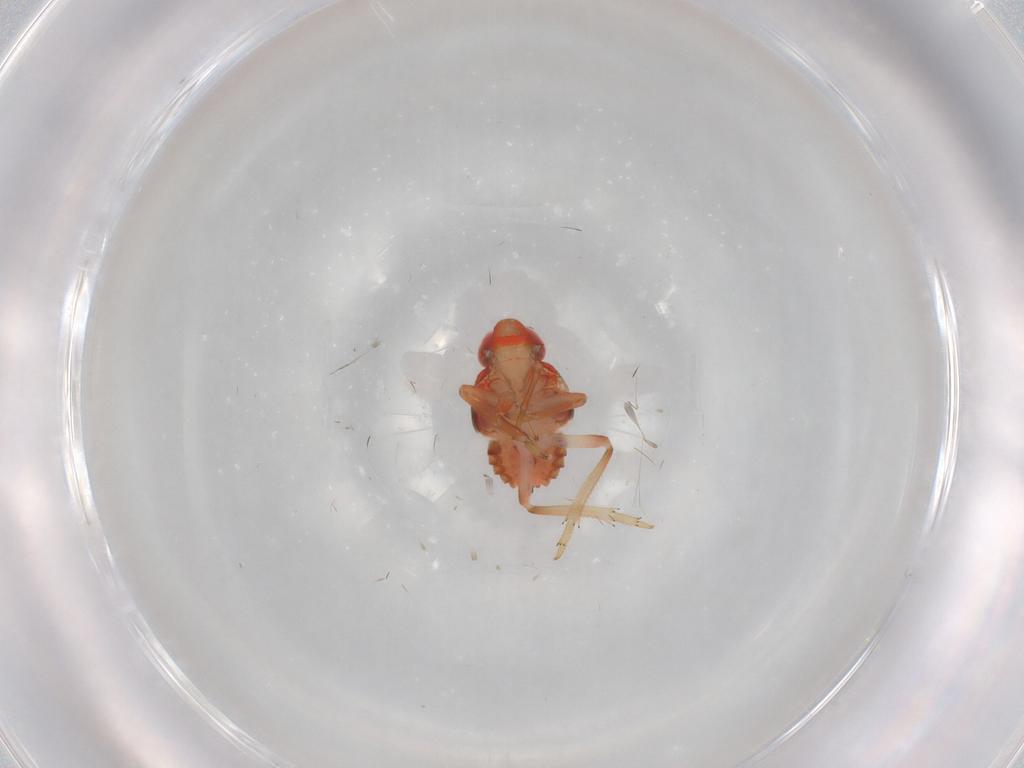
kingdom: Animalia
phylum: Arthropoda
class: Insecta
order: Hemiptera
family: Issidae
